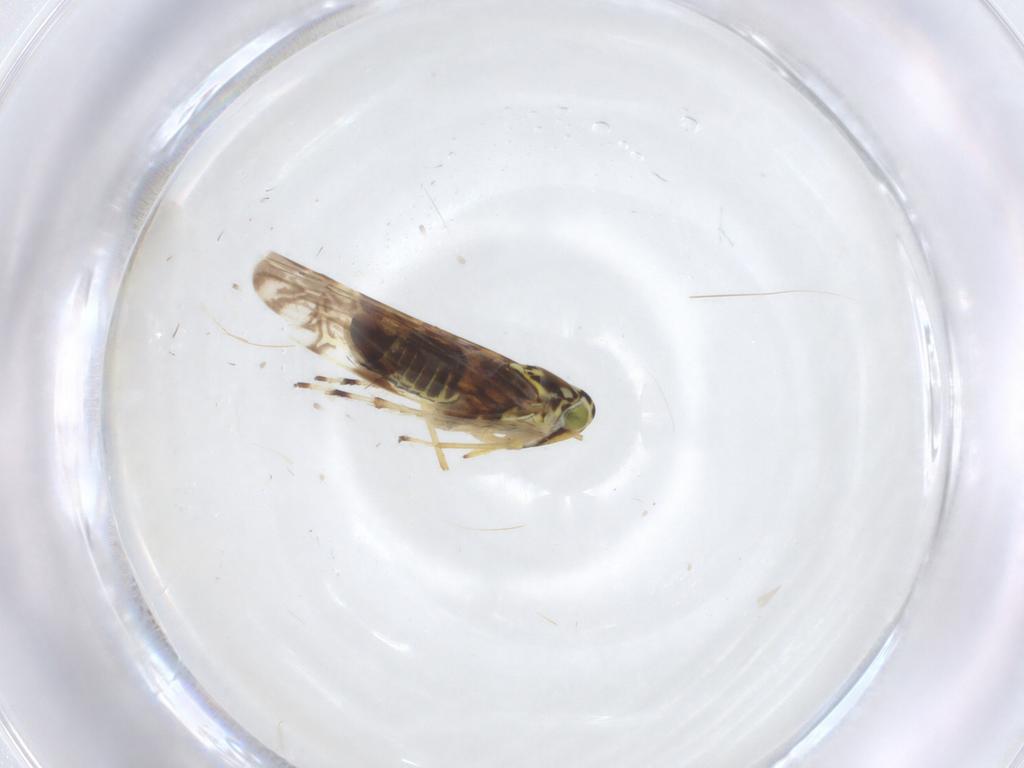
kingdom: Animalia
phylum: Arthropoda
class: Insecta
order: Hemiptera
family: Cicadellidae
